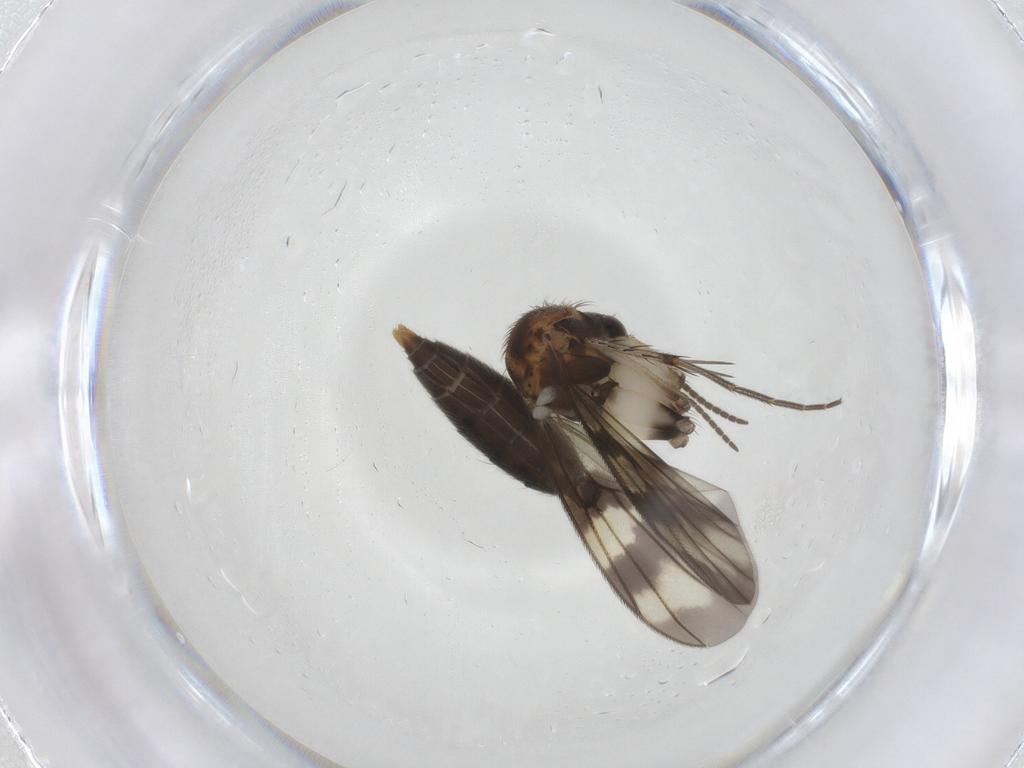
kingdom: Animalia
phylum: Arthropoda
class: Insecta
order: Diptera
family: Mycetophilidae
